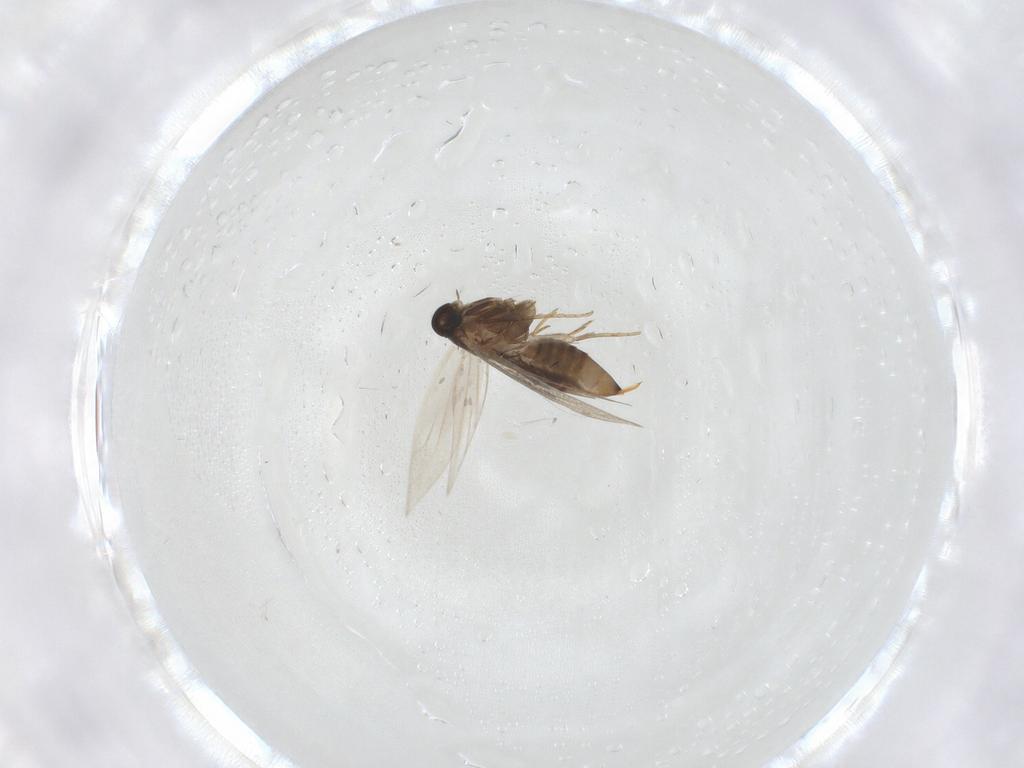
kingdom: Animalia
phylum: Arthropoda
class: Insecta
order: Lepidoptera
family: Heliozelidae
